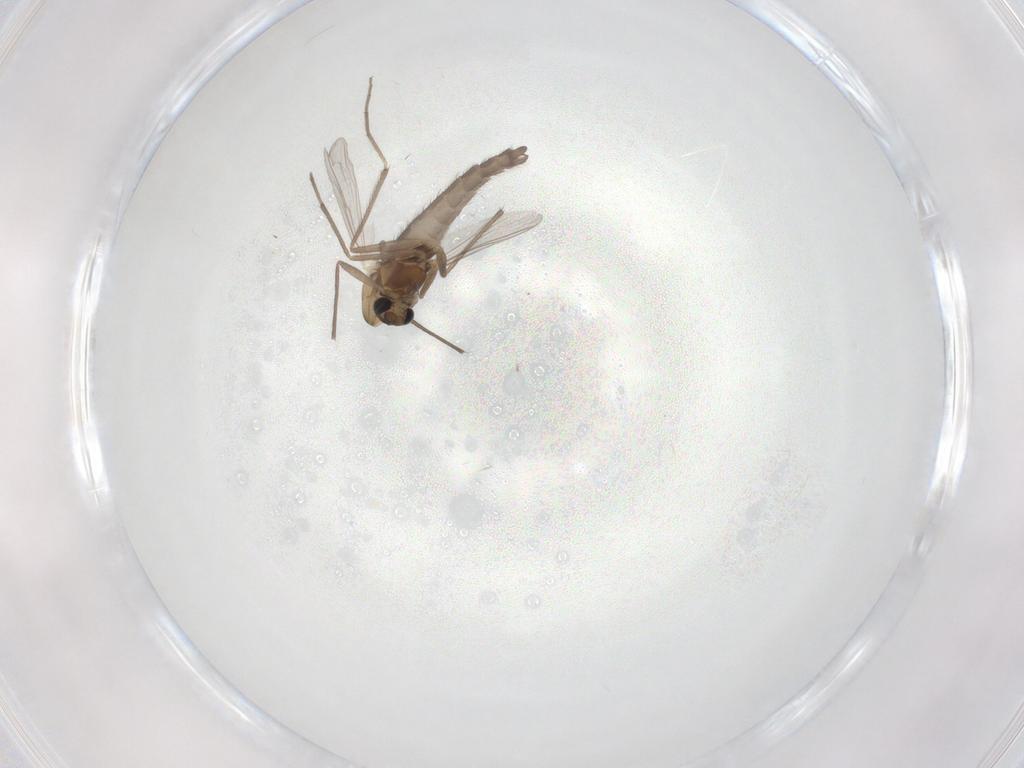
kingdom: Animalia
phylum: Arthropoda
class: Insecta
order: Diptera
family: Chironomidae
